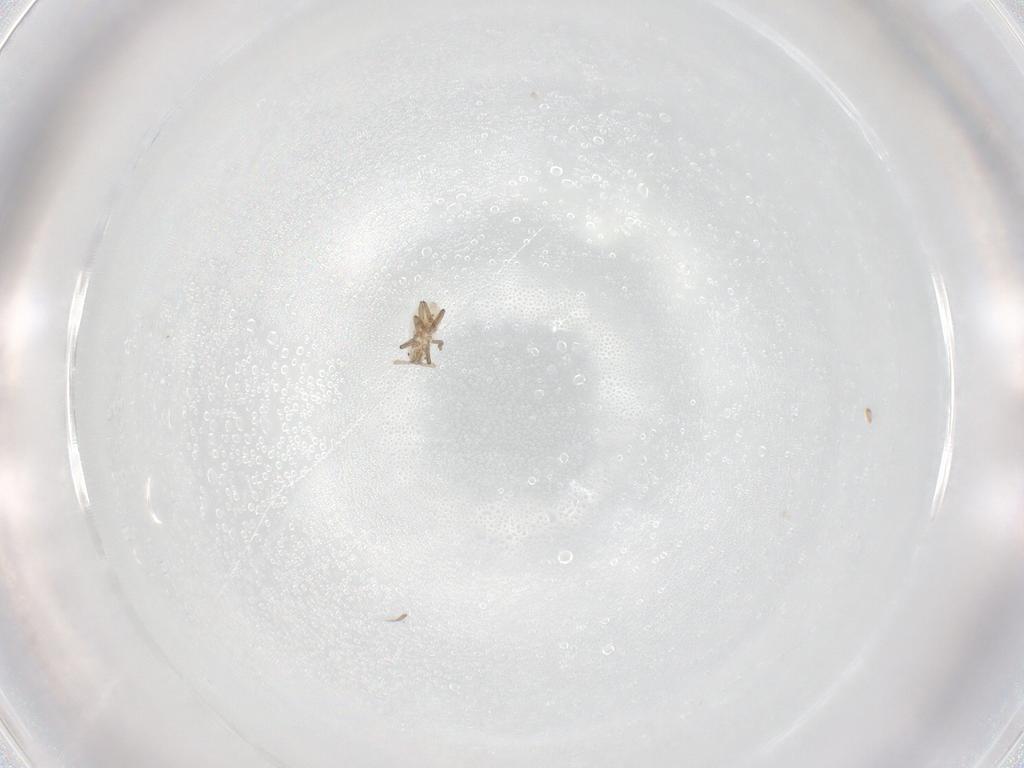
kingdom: Animalia
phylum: Arthropoda
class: Insecta
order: Hemiptera
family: Aphididae
